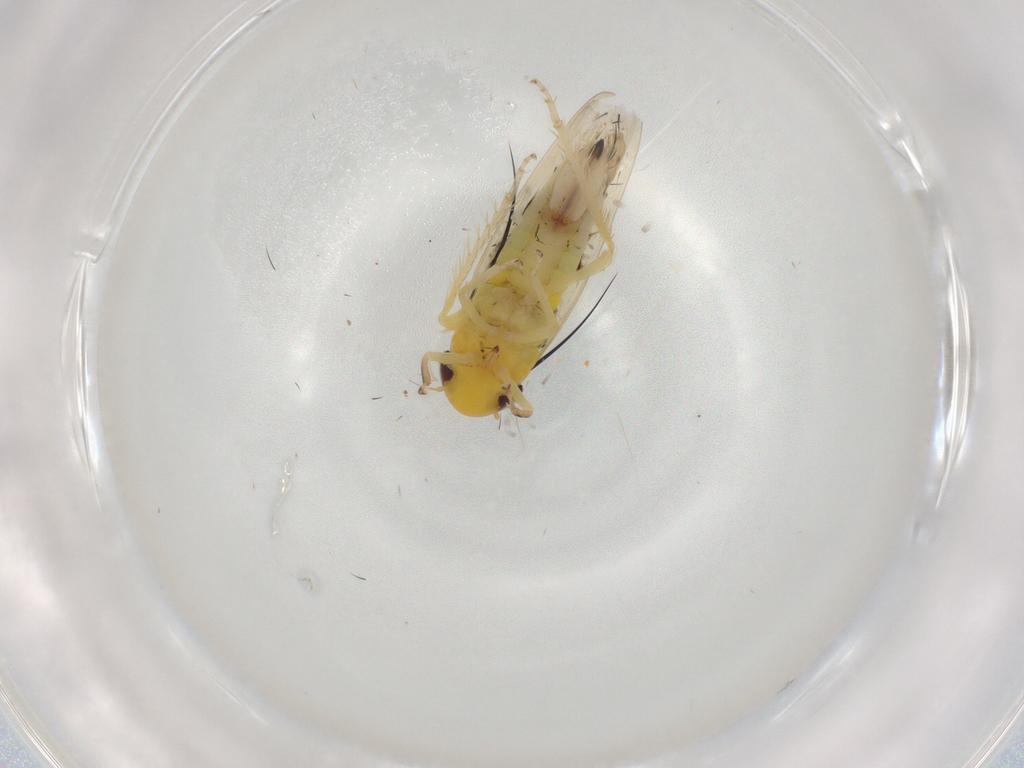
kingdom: Animalia
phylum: Arthropoda
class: Insecta
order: Hemiptera
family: Cicadellidae
